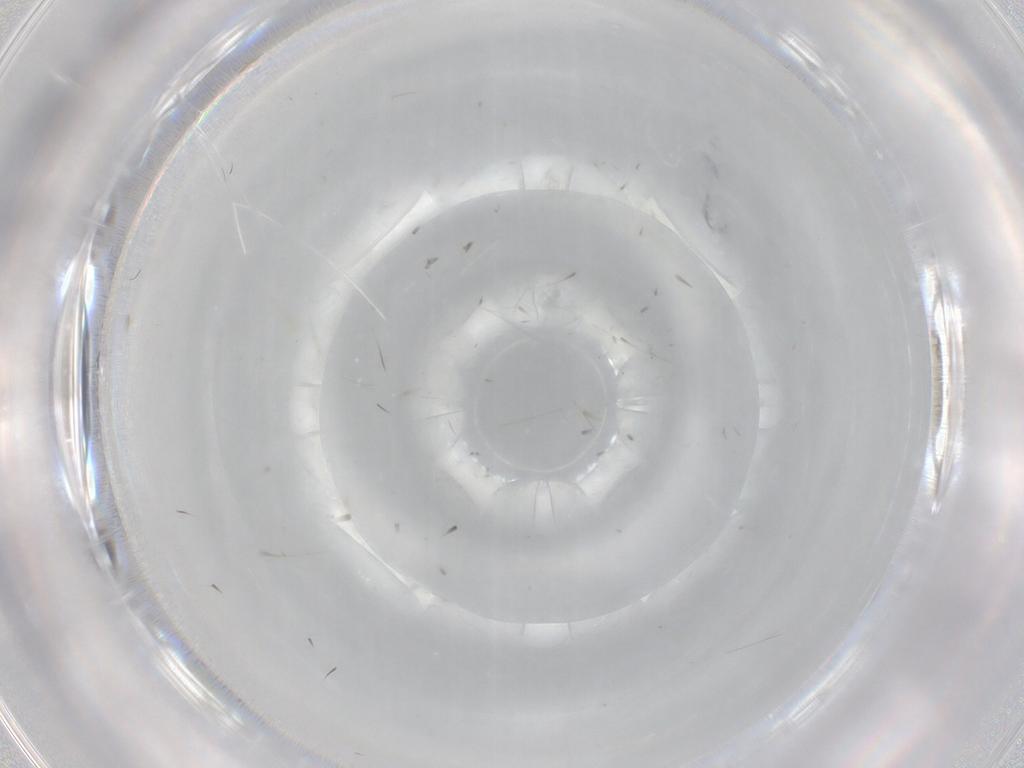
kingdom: Animalia
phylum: Arthropoda
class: Insecta
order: Diptera
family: Cecidomyiidae
